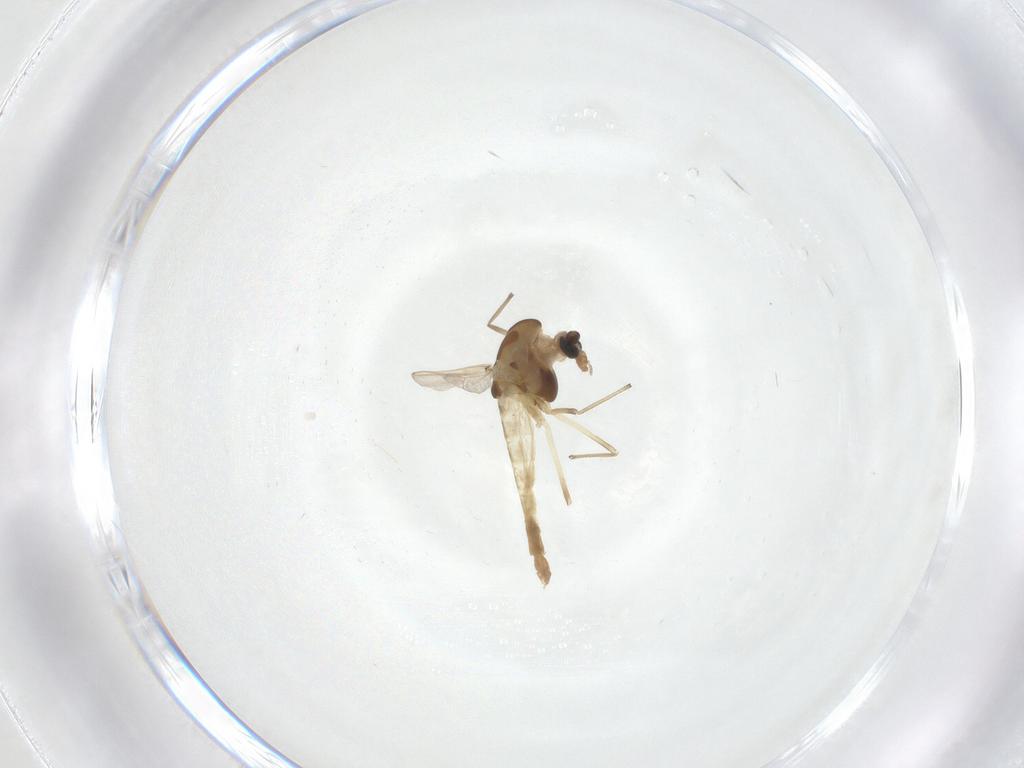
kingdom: Animalia
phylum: Arthropoda
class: Insecta
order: Diptera
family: Chironomidae
